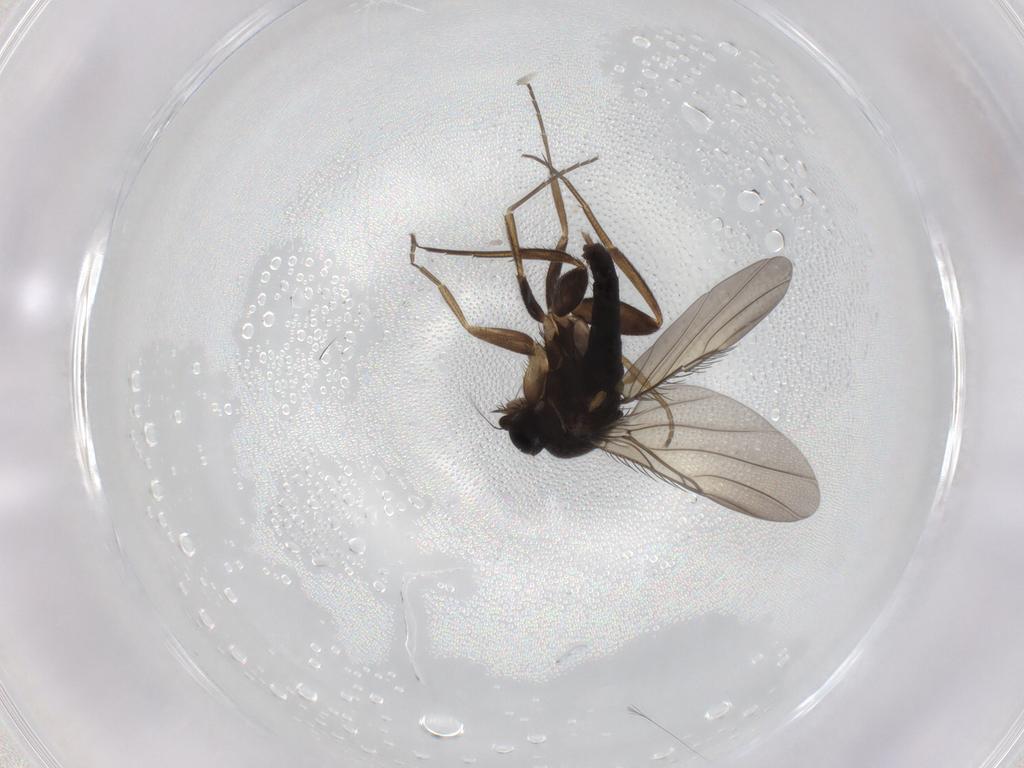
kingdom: Animalia
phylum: Arthropoda
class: Insecta
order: Diptera
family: Phoridae
